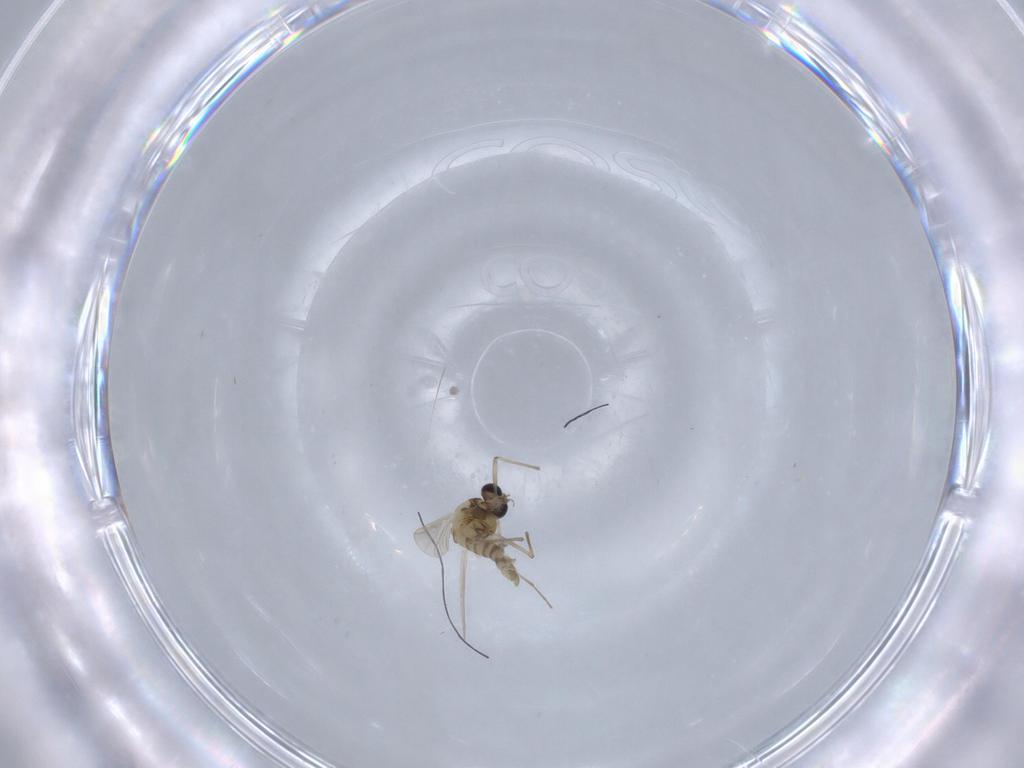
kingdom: Animalia
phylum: Arthropoda
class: Insecta
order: Diptera
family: Chironomidae
